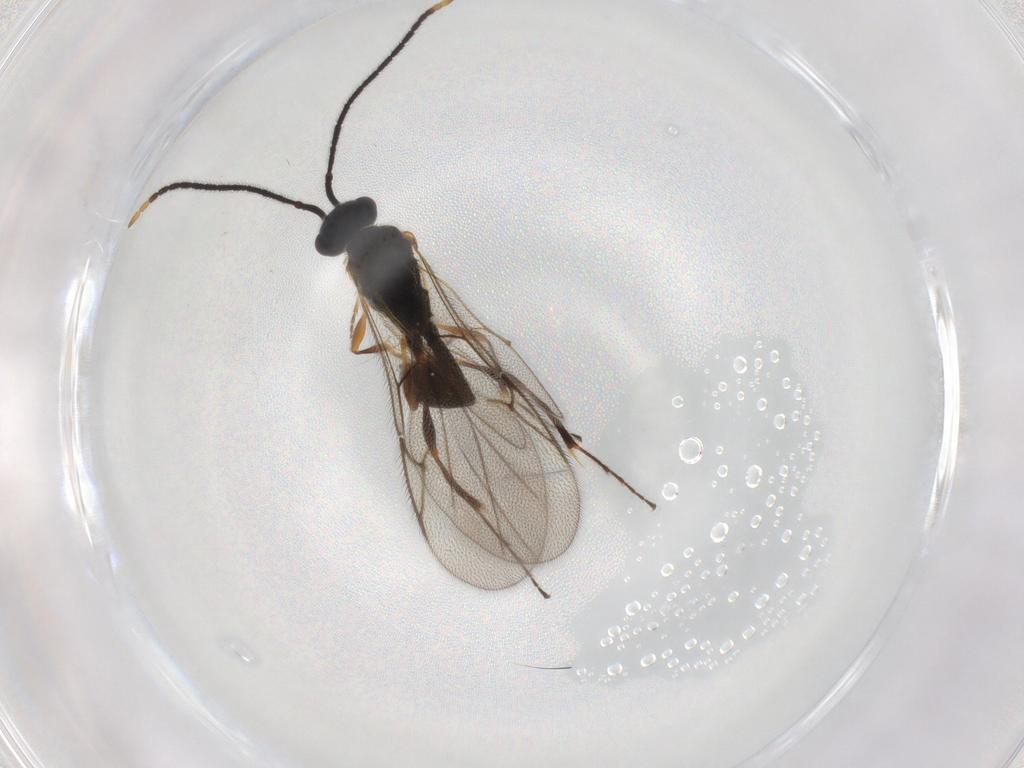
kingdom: Animalia
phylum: Arthropoda
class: Insecta
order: Hymenoptera
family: Diapriidae
